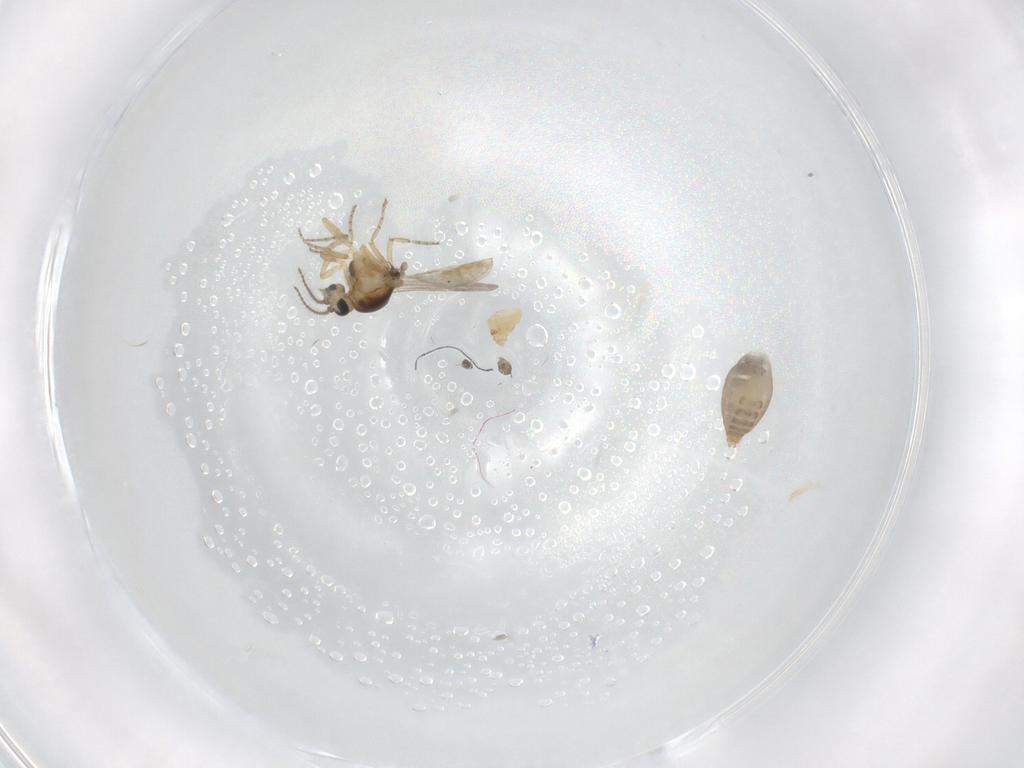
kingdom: Animalia
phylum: Arthropoda
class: Insecta
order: Diptera
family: Ceratopogonidae
